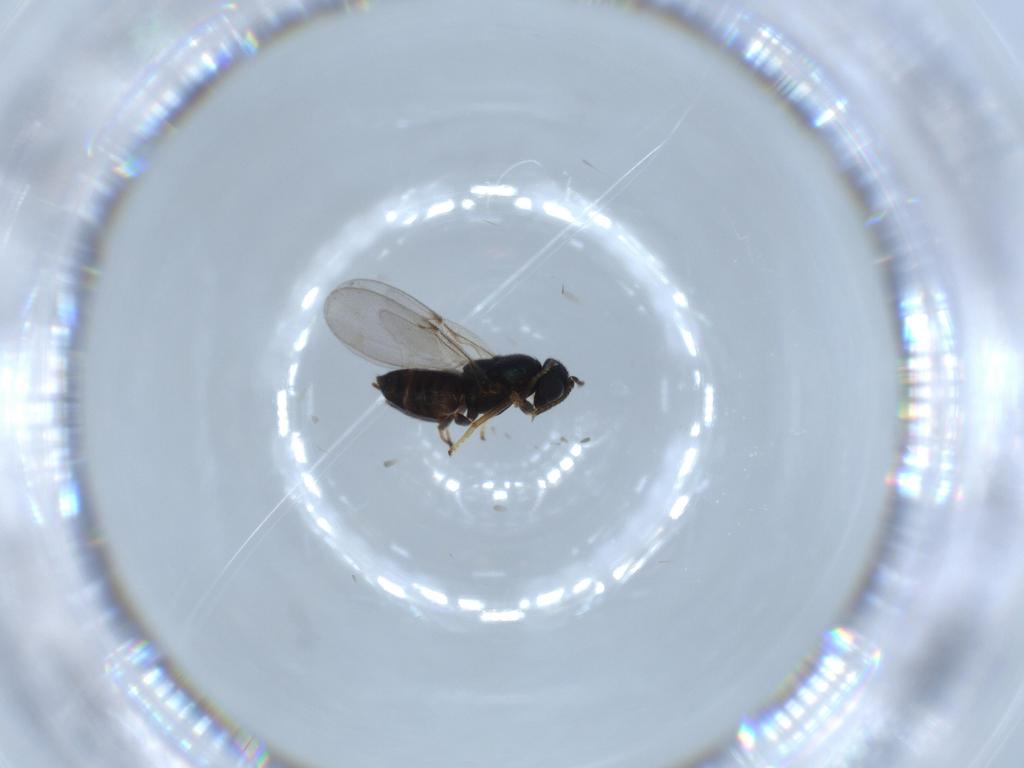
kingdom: Animalia
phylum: Arthropoda
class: Insecta
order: Hymenoptera
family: Encyrtidae
